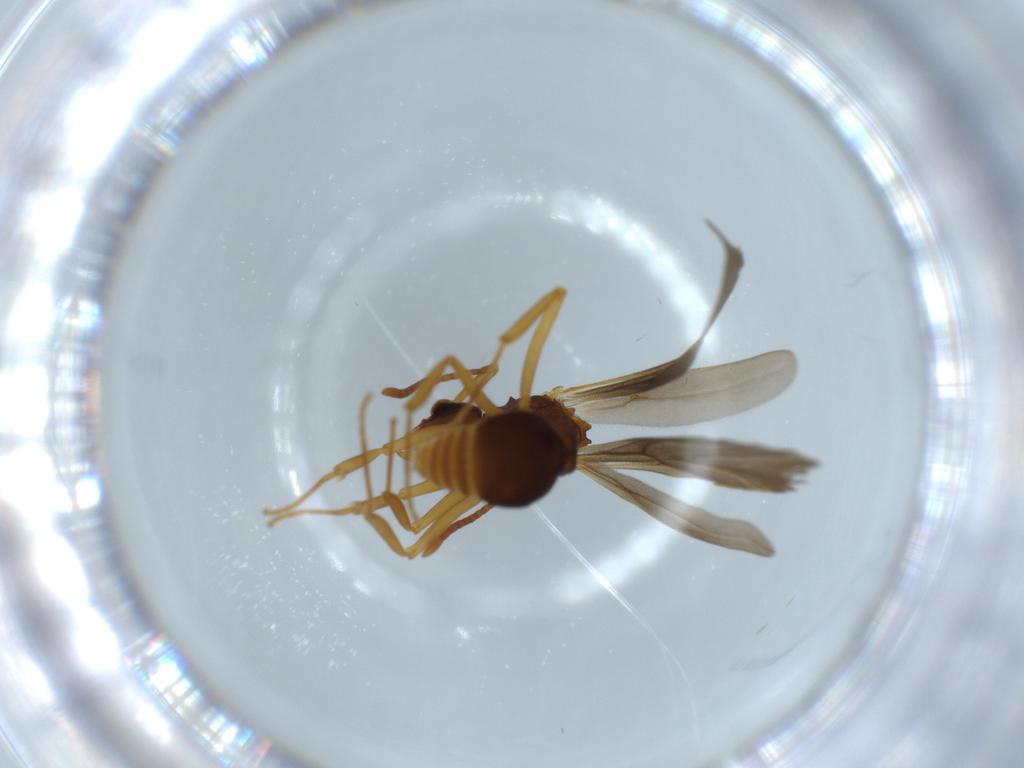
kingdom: Animalia
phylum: Arthropoda
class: Insecta
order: Hymenoptera
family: Formicidae
